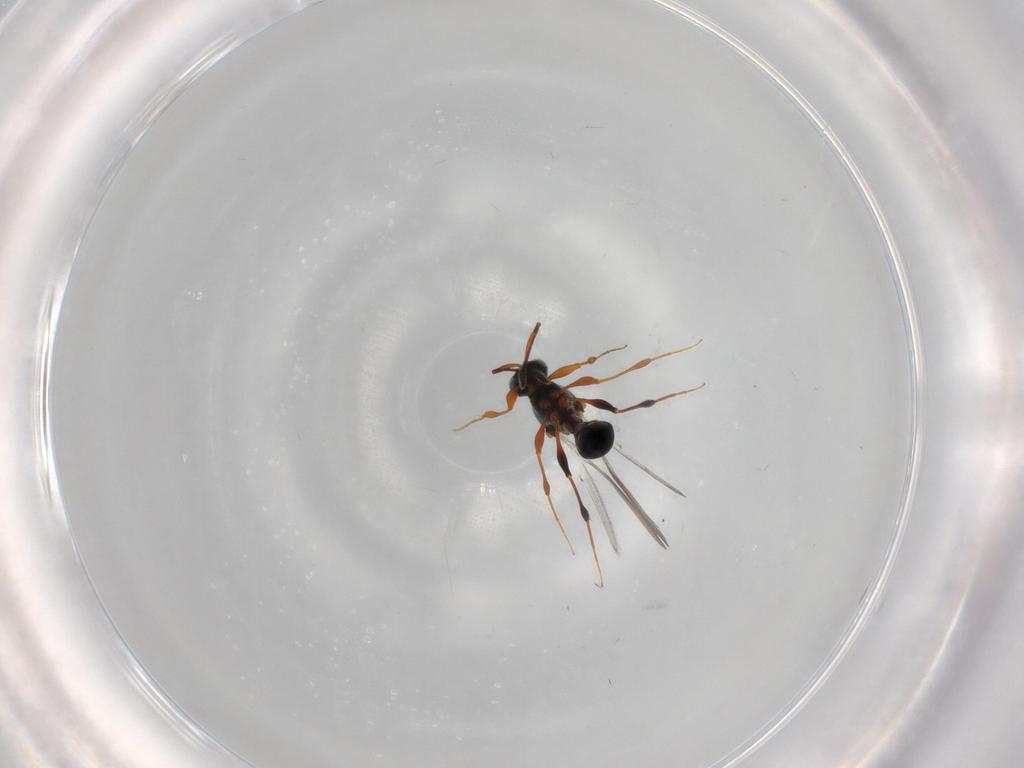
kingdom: Animalia
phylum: Arthropoda
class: Insecta
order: Hymenoptera
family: Platygastridae
